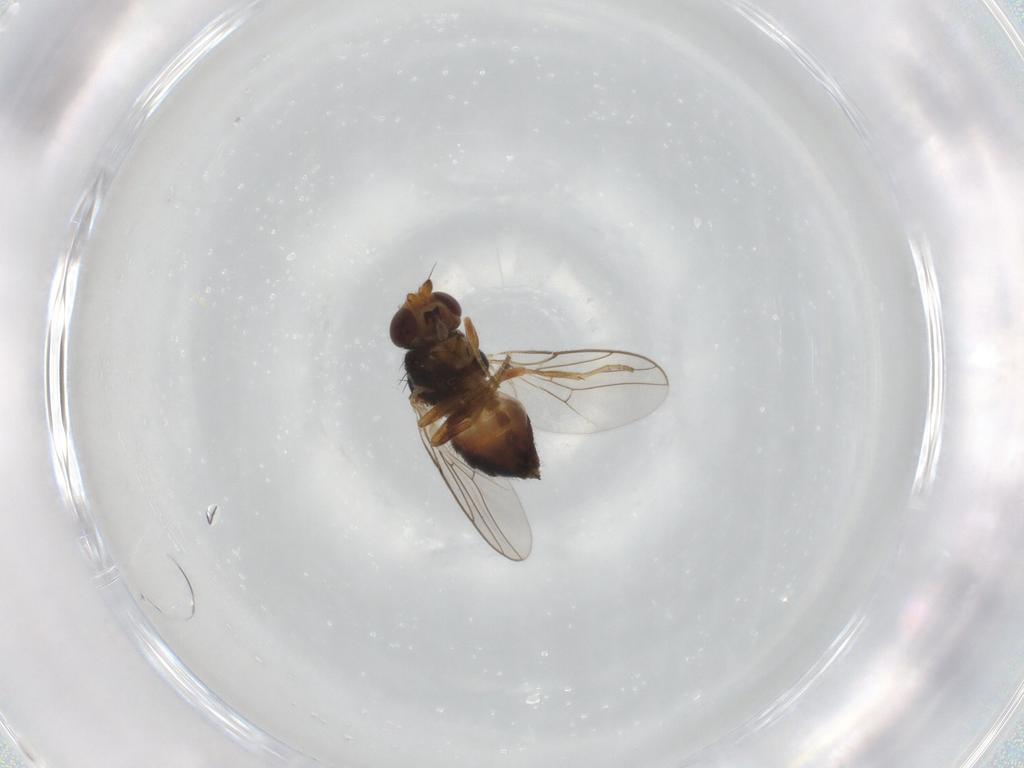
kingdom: Animalia
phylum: Arthropoda
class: Insecta
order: Diptera
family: Chloropidae
